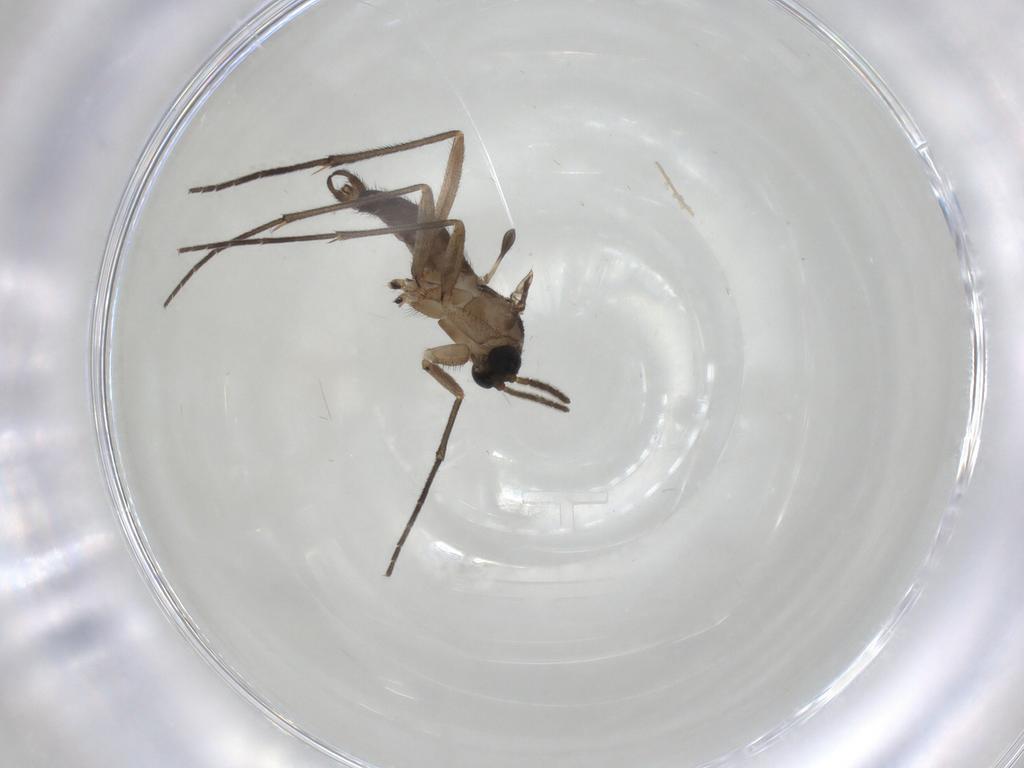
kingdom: Animalia
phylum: Arthropoda
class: Insecta
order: Diptera
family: Sciaridae
